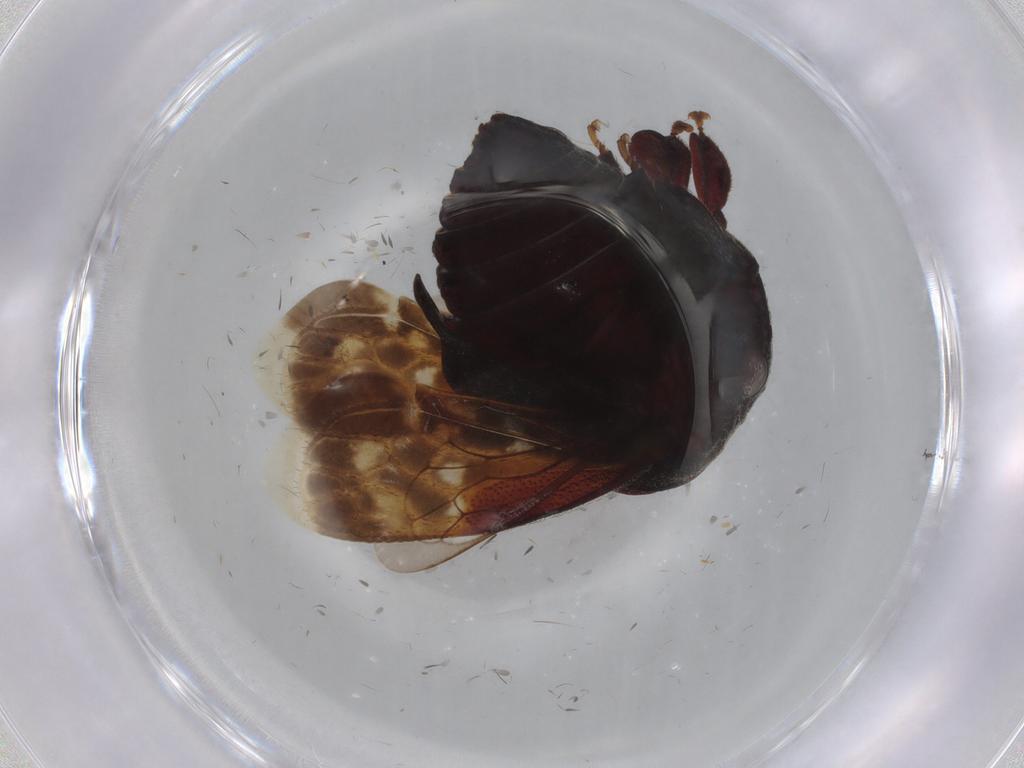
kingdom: Animalia
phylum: Arthropoda
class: Insecta
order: Hemiptera
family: Membracidae
